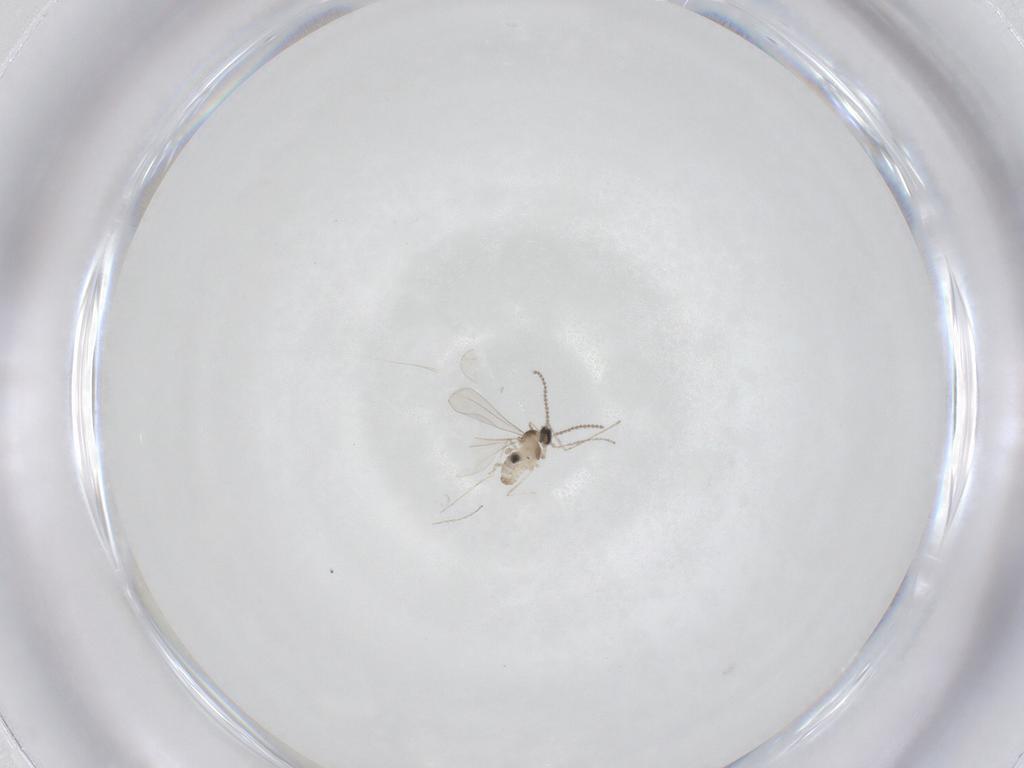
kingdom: Animalia
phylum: Arthropoda
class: Insecta
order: Diptera
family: Cecidomyiidae
